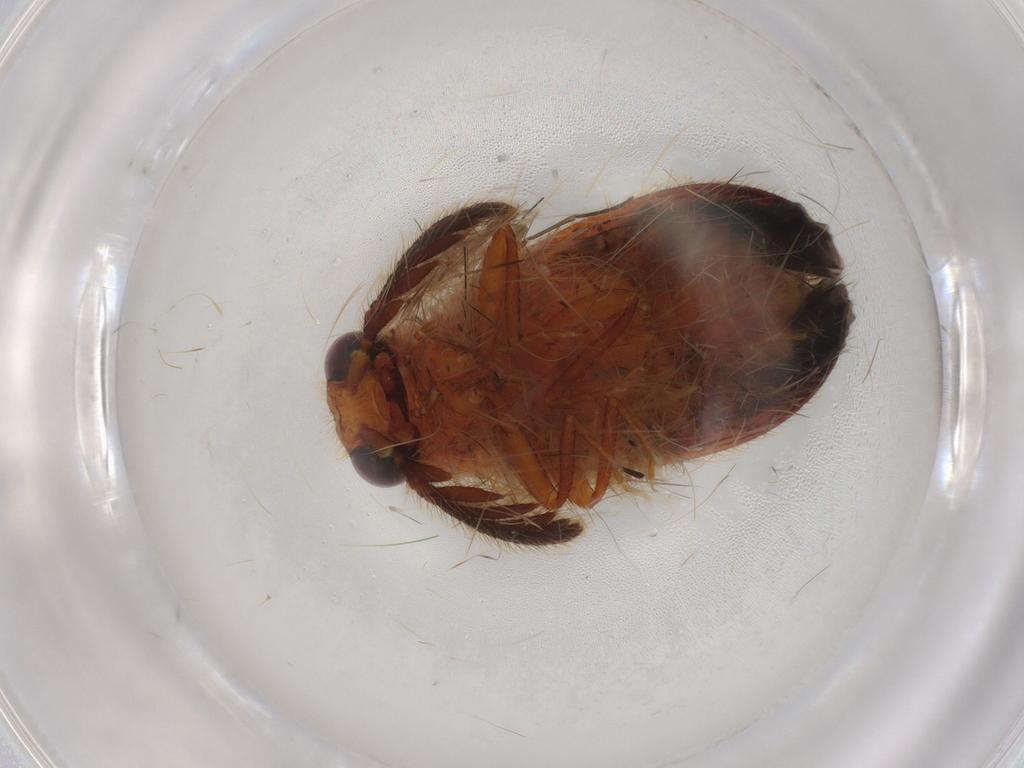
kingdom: Animalia
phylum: Arthropoda
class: Insecta
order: Coleoptera
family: Elateridae
